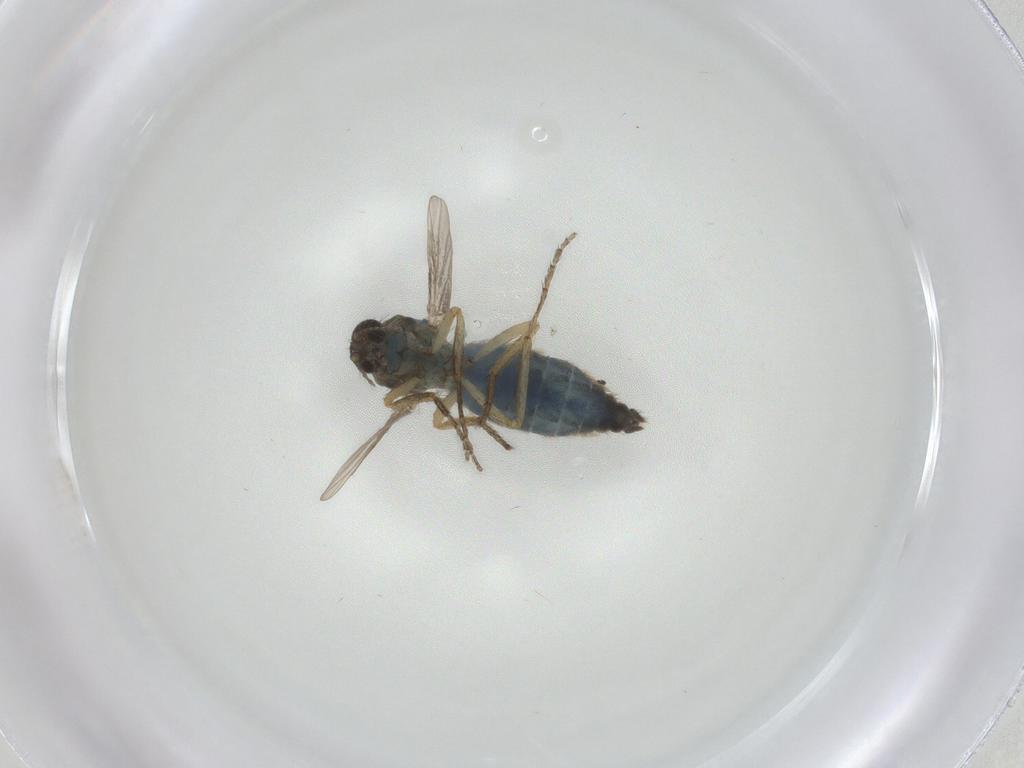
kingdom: Animalia
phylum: Arthropoda
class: Insecta
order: Diptera
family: Ceratopogonidae
